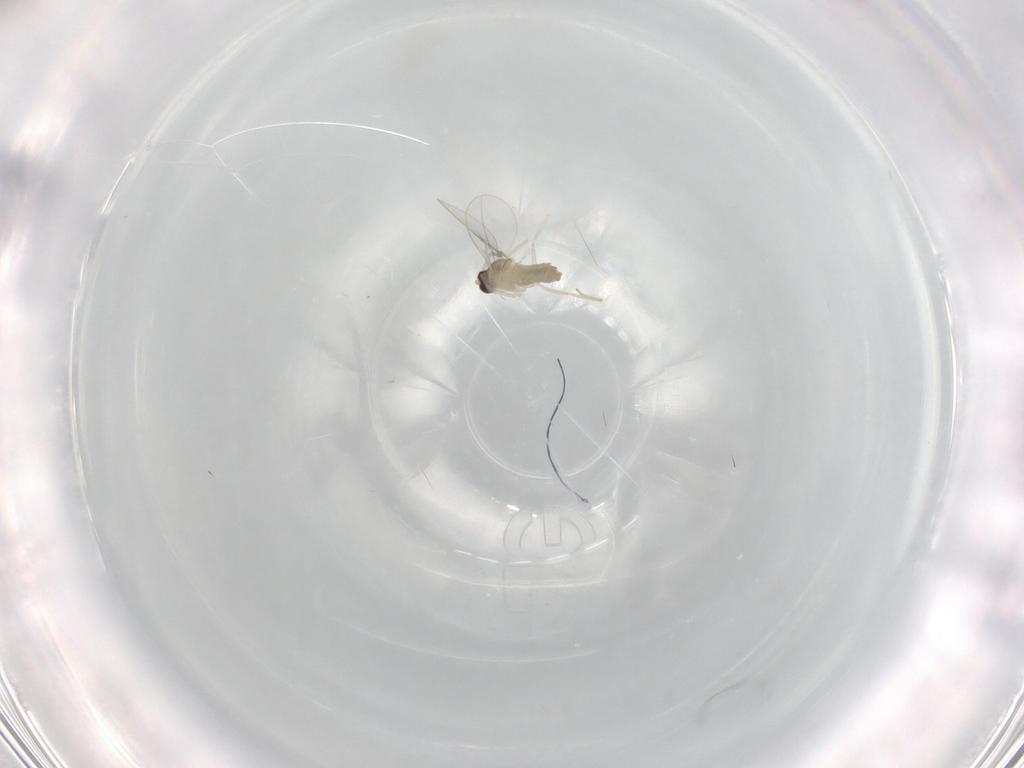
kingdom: Animalia
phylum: Arthropoda
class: Insecta
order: Diptera
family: Cecidomyiidae
